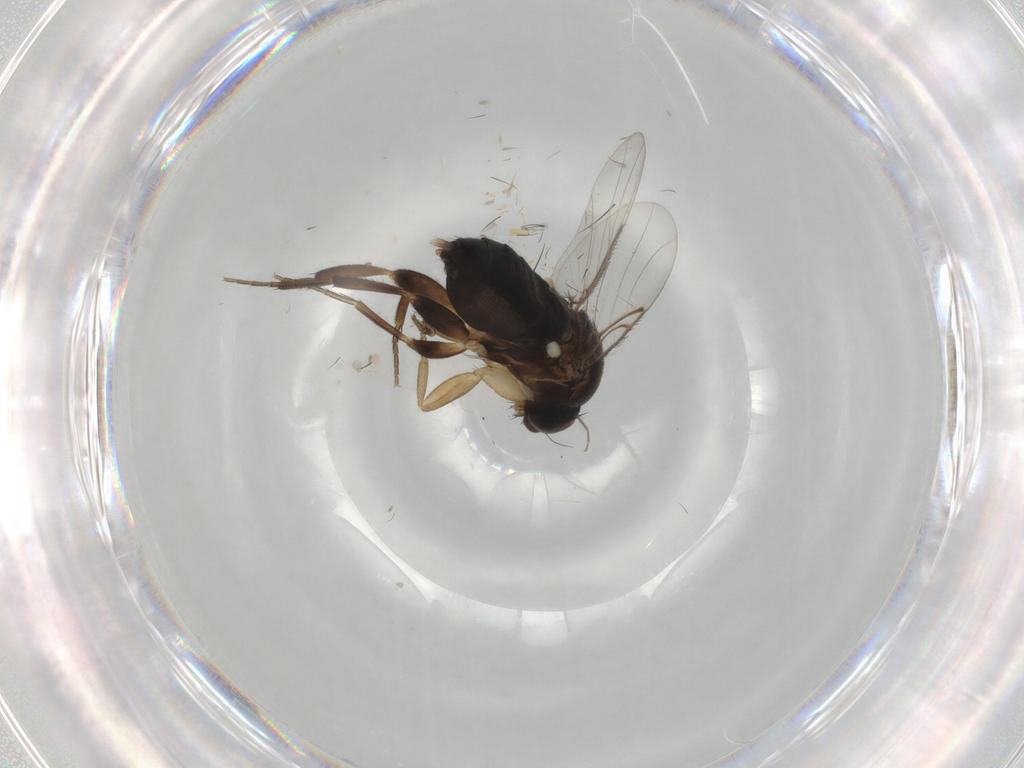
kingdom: Animalia
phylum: Arthropoda
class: Insecta
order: Diptera
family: Phoridae
